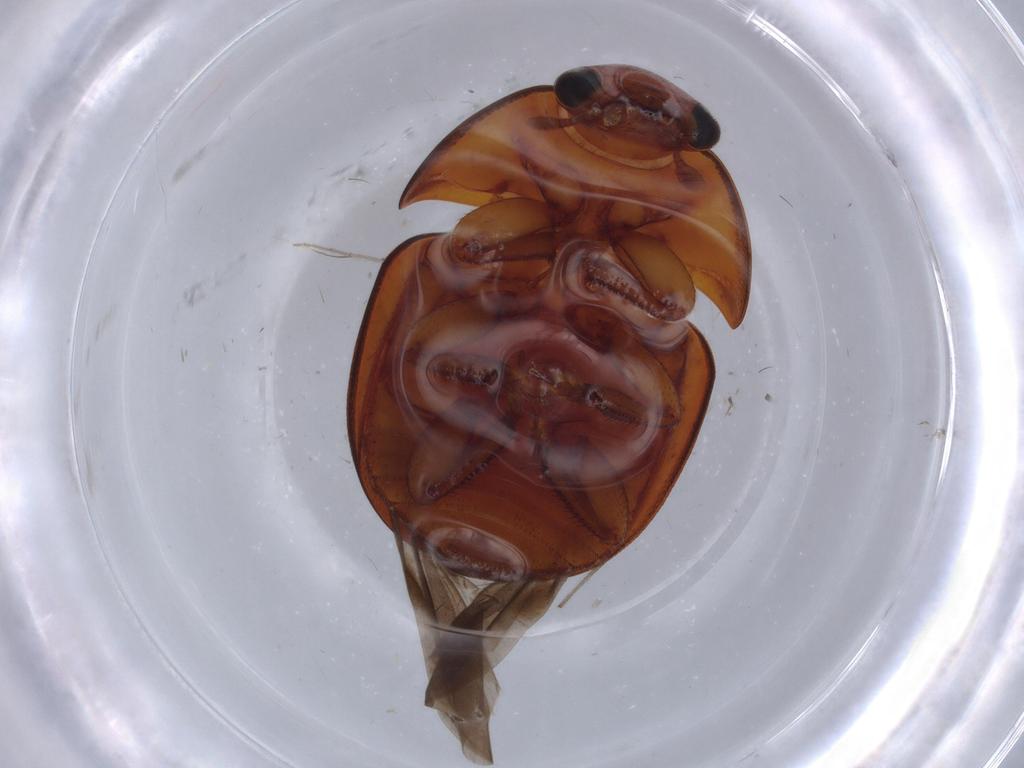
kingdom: Animalia
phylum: Arthropoda
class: Insecta
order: Coleoptera
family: Nitidulidae
